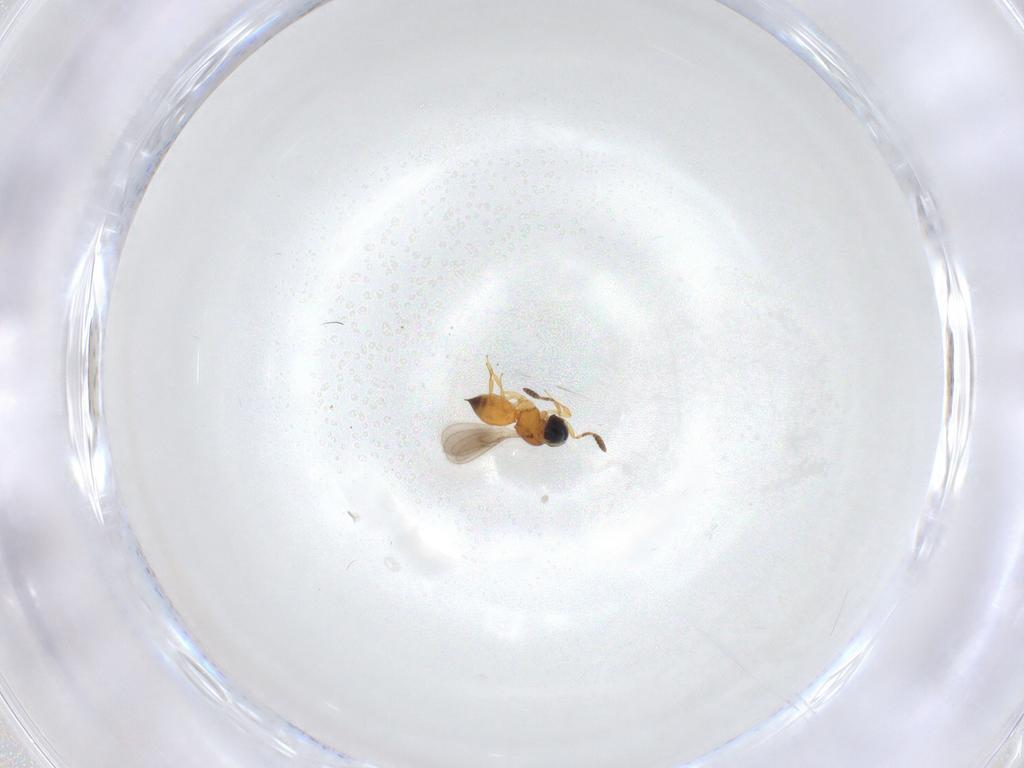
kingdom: Animalia
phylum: Arthropoda
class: Insecta
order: Hymenoptera
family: Scelionidae
